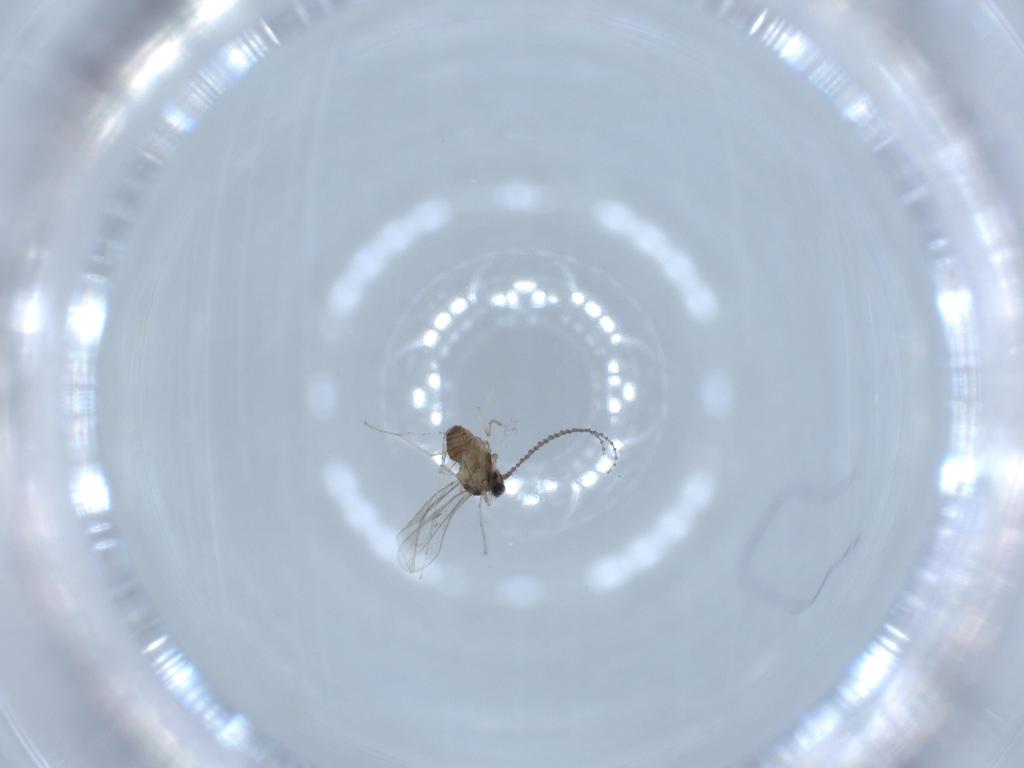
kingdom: Animalia
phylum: Arthropoda
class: Insecta
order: Diptera
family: Cecidomyiidae
